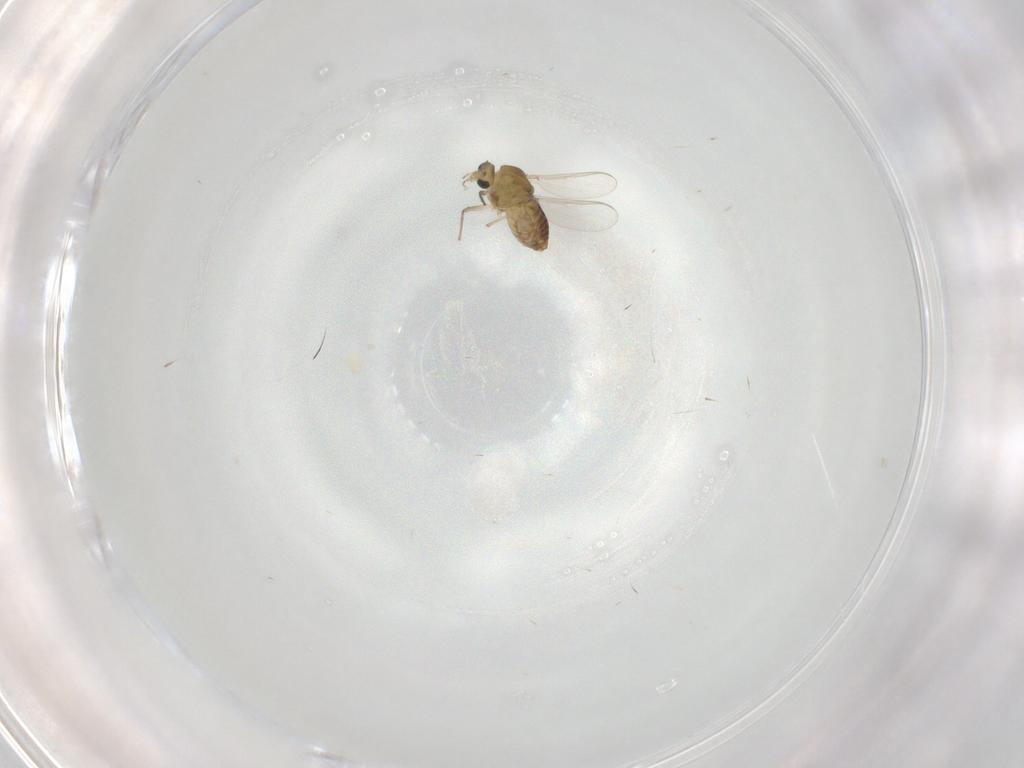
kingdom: Animalia
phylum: Arthropoda
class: Insecta
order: Diptera
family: Chironomidae
